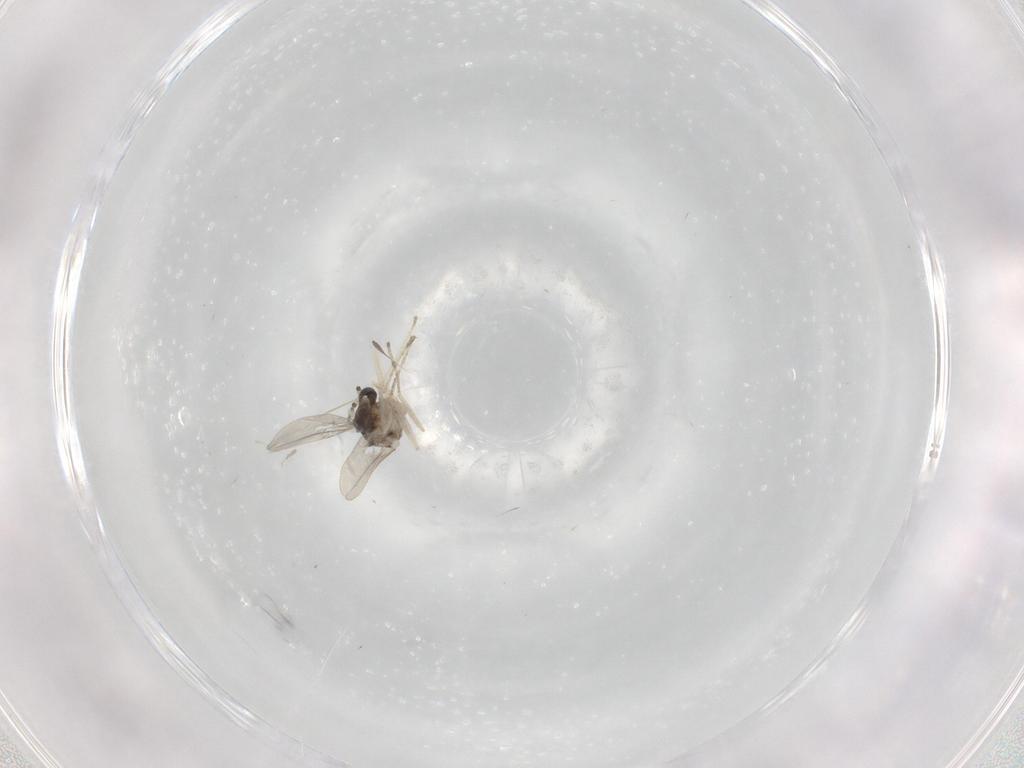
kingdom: Animalia
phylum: Arthropoda
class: Insecta
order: Diptera
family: Cecidomyiidae
